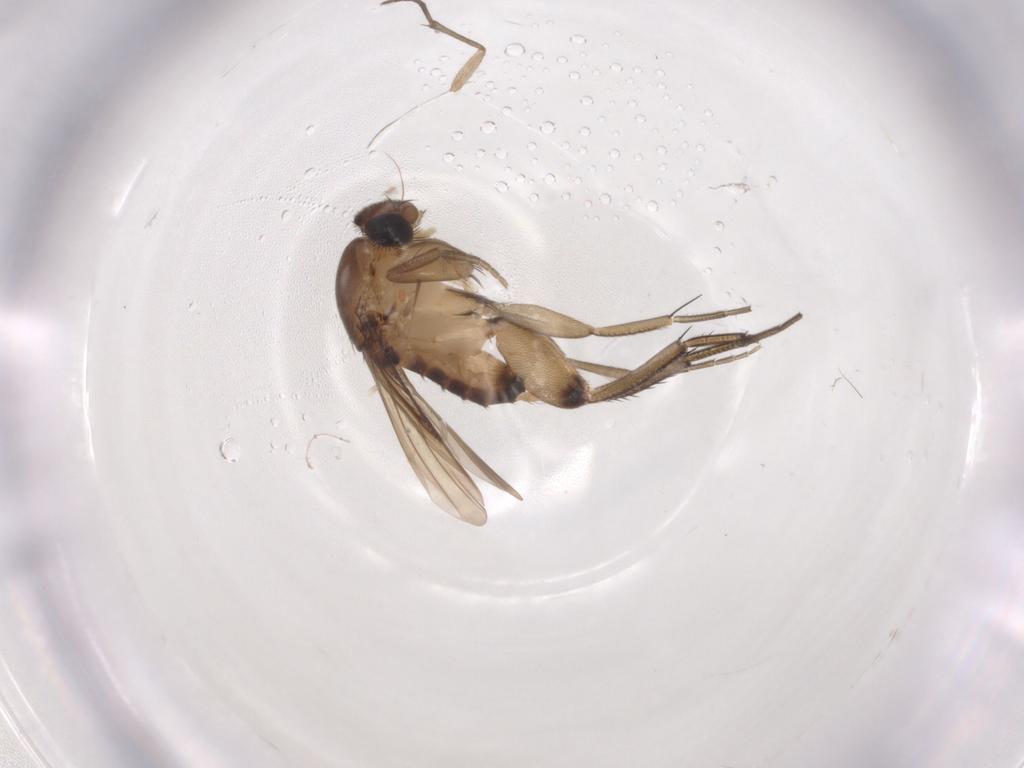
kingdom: Animalia
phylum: Arthropoda
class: Insecta
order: Diptera
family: Phoridae
